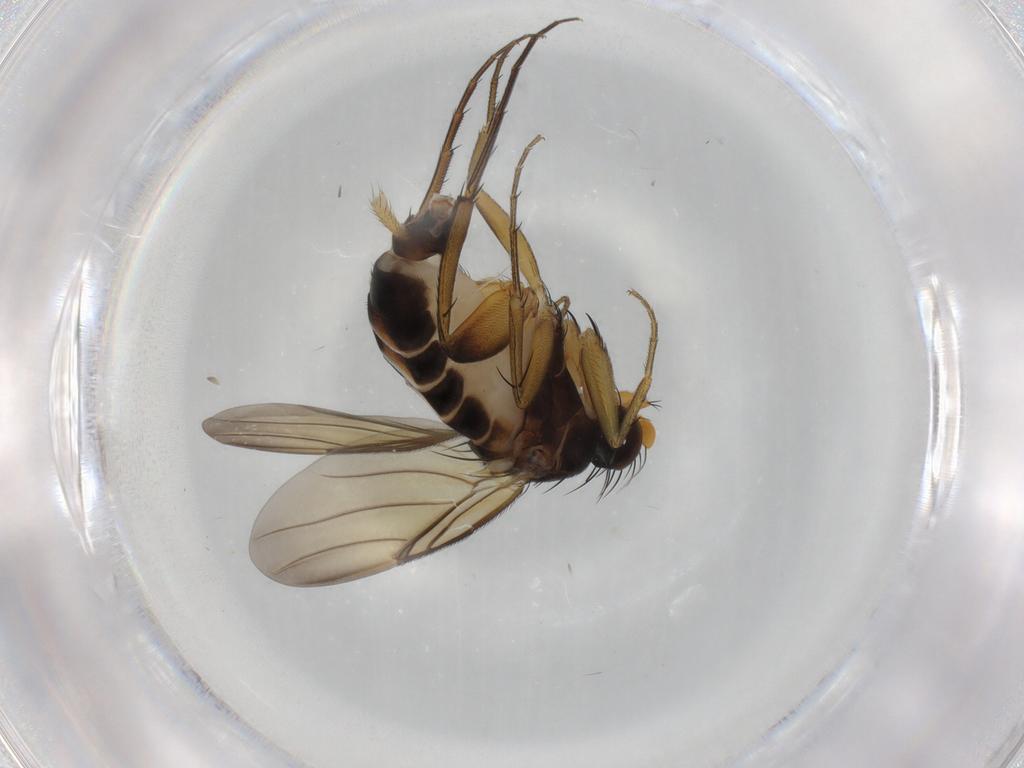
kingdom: Animalia
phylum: Arthropoda
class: Insecta
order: Diptera
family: Phoridae
